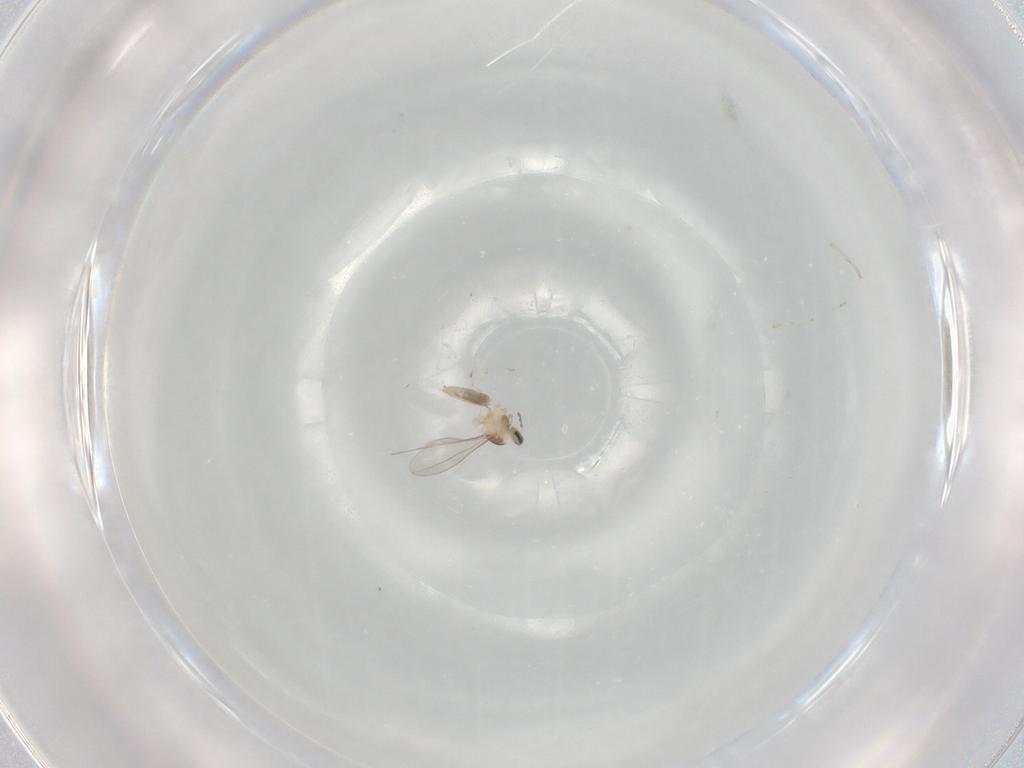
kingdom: Animalia
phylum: Arthropoda
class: Insecta
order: Diptera
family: Cecidomyiidae
